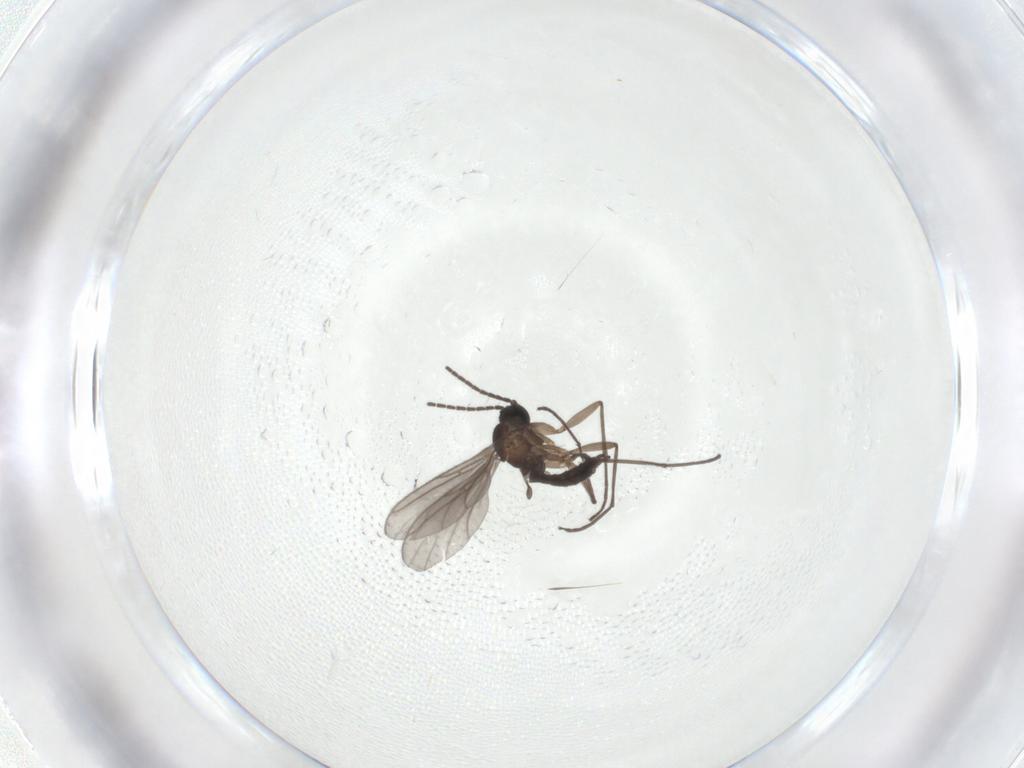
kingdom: Animalia
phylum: Arthropoda
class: Insecta
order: Diptera
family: Sciaridae
